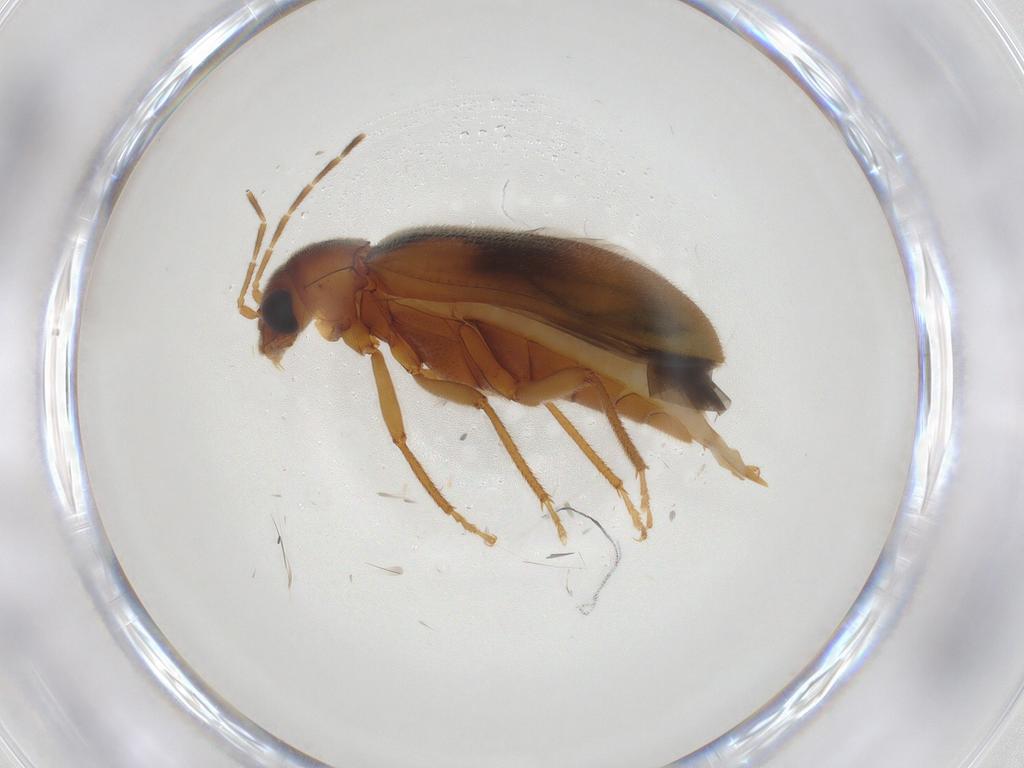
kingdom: Animalia
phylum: Arthropoda
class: Insecta
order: Coleoptera
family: Ptilodactylidae
